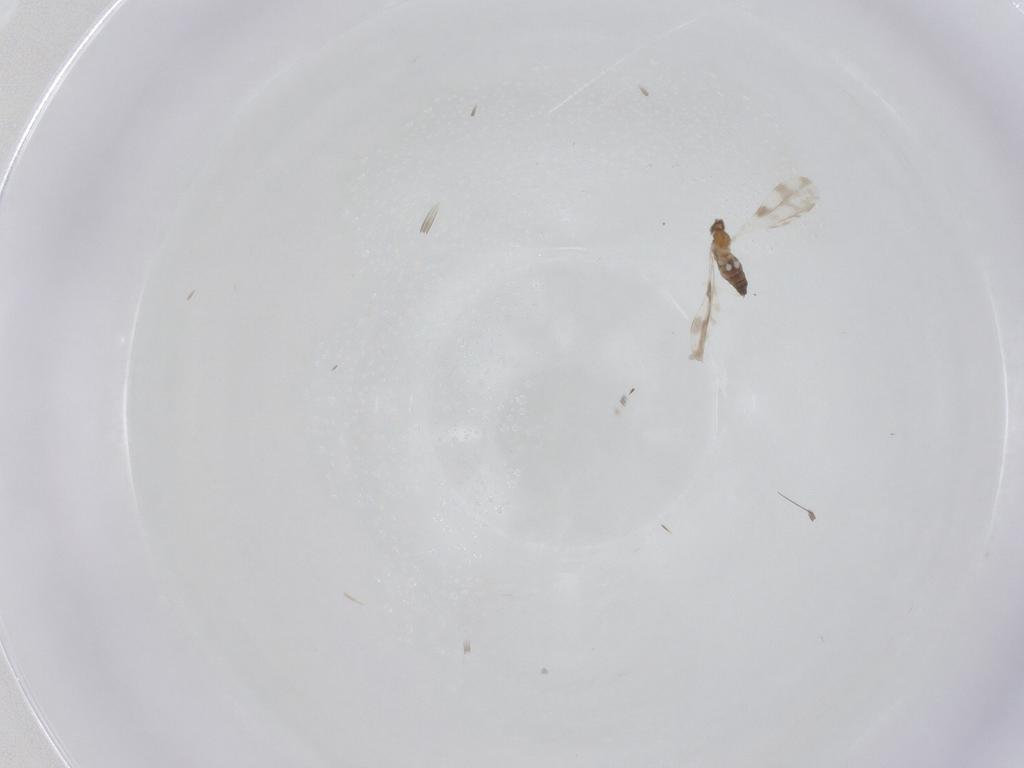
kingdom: Animalia
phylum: Arthropoda
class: Insecta
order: Diptera
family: Cecidomyiidae
